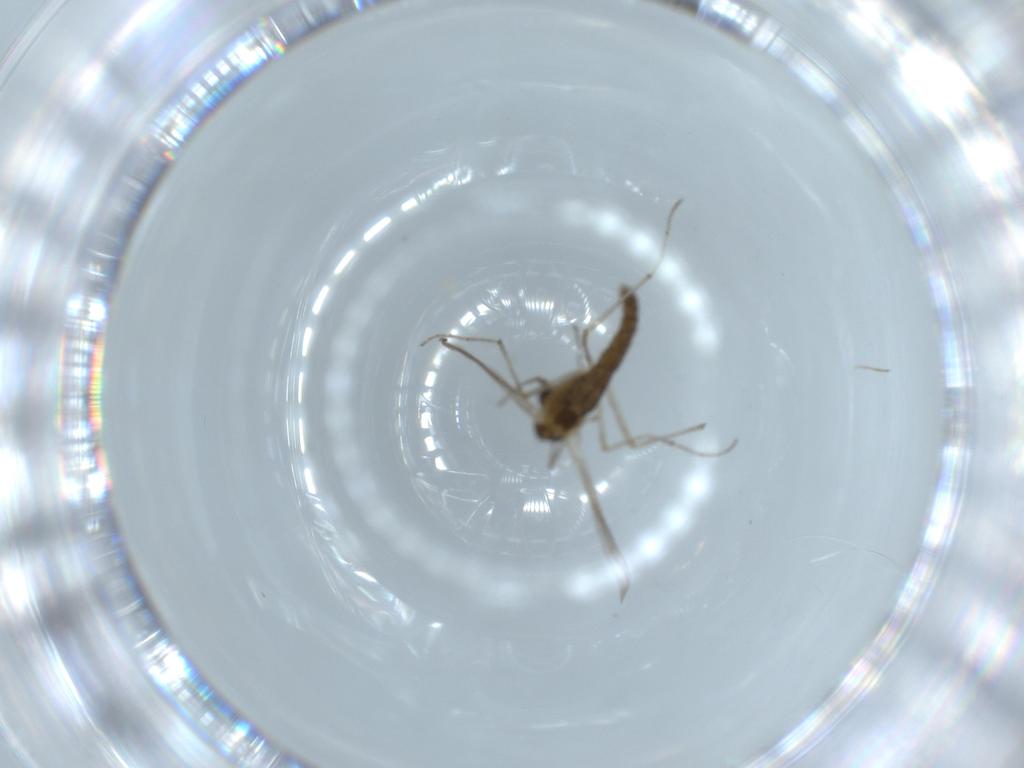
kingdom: Animalia
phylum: Arthropoda
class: Insecta
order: Diptera
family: Chironomidae
